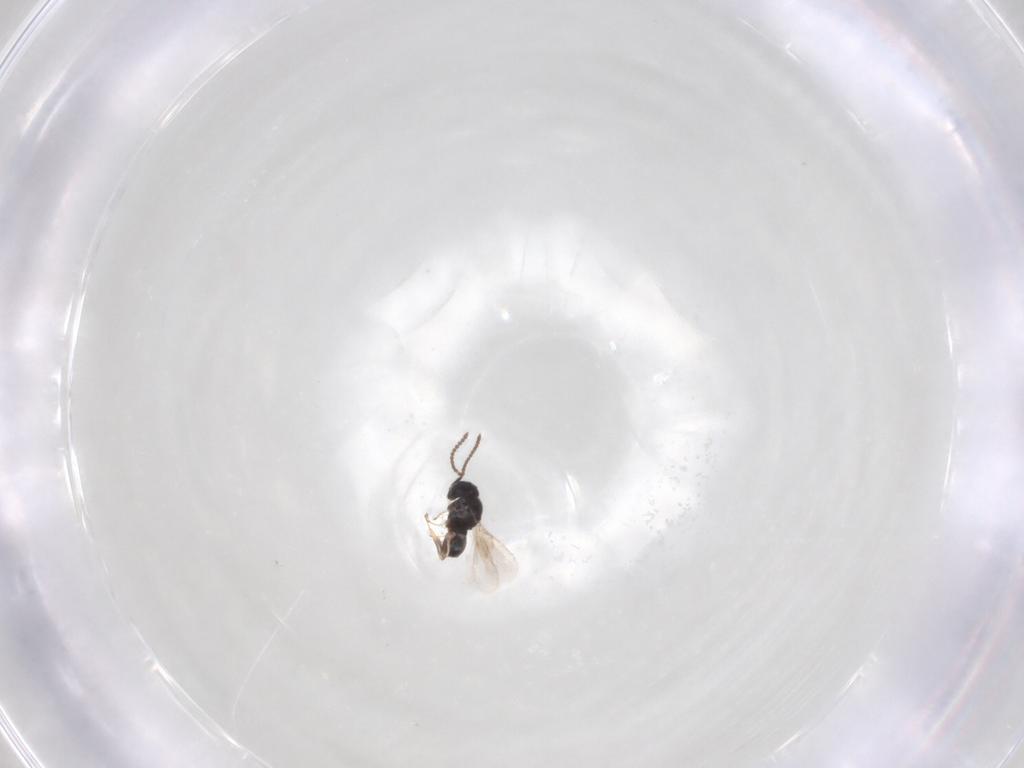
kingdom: Animalia
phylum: Arthropoda
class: Insecta
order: Hymenoptera
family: Scelionidae
